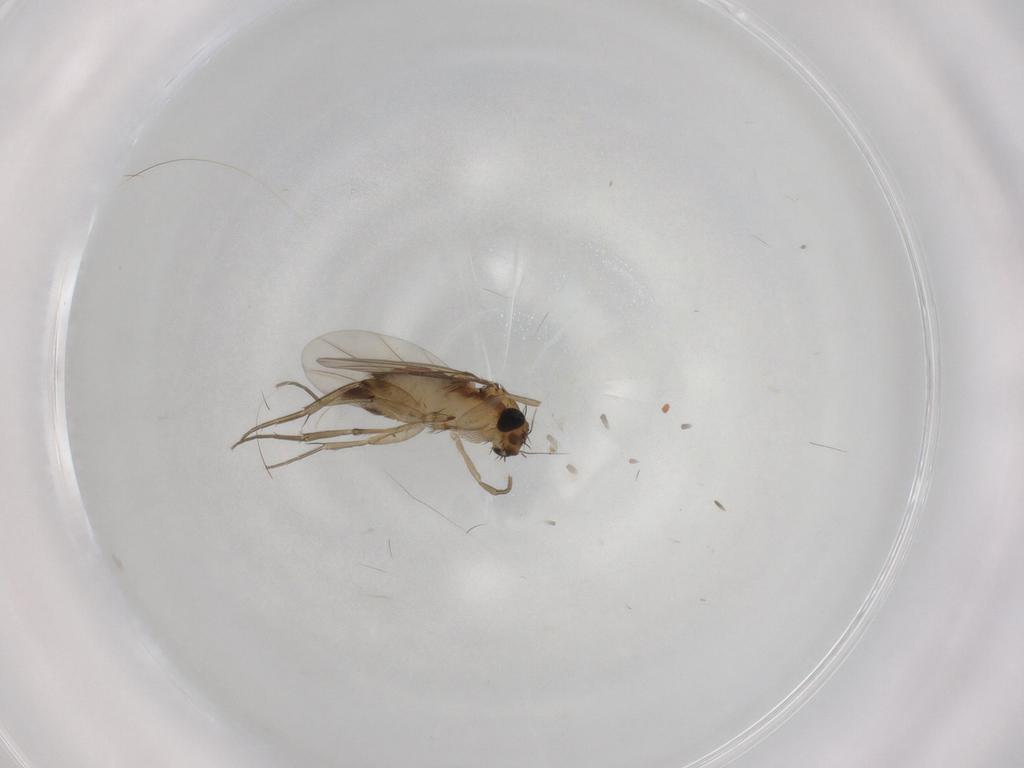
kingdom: Animalia
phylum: Arthropoda
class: Insecta
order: Diptera
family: Phoridae
